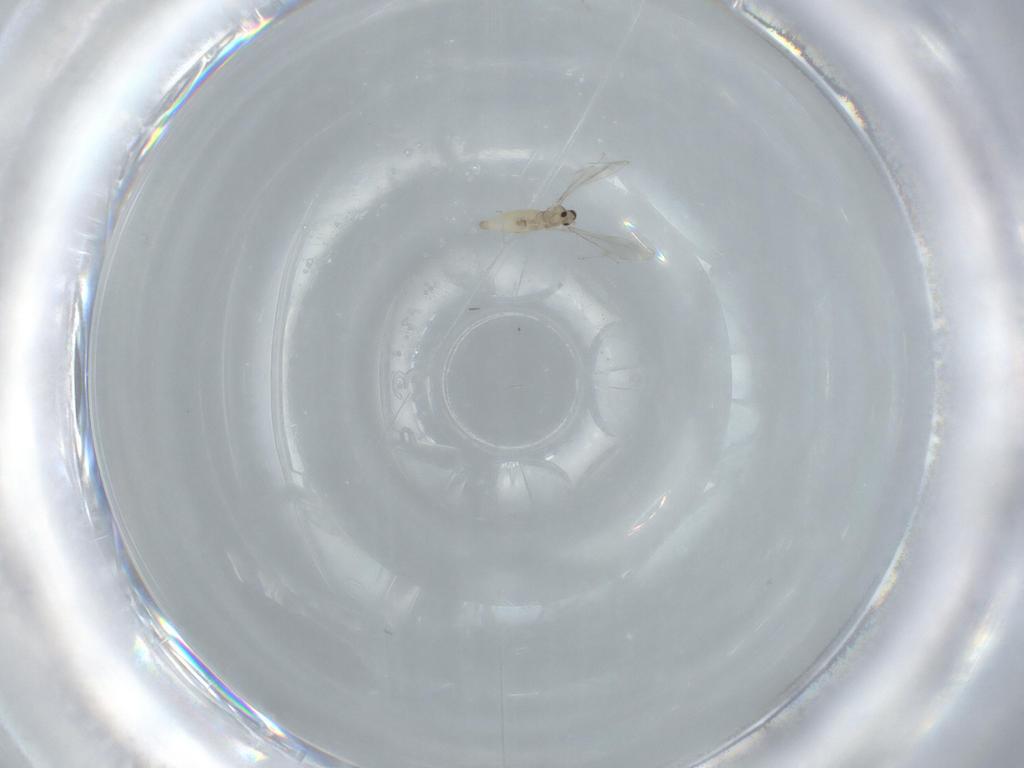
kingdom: Animalia
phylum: Arthropoda
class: Insecta
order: Diptera
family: Cecidomyiidae
